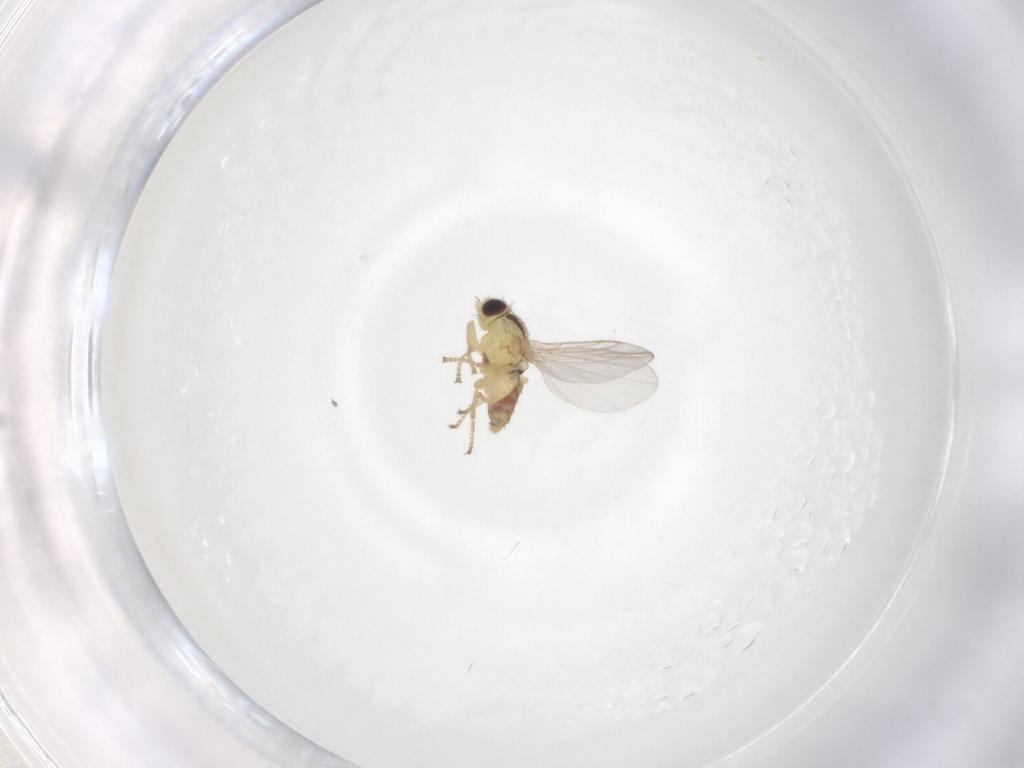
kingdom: Animalia
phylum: Arthropoda
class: Insecta
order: Diptera
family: Agromyzidae
